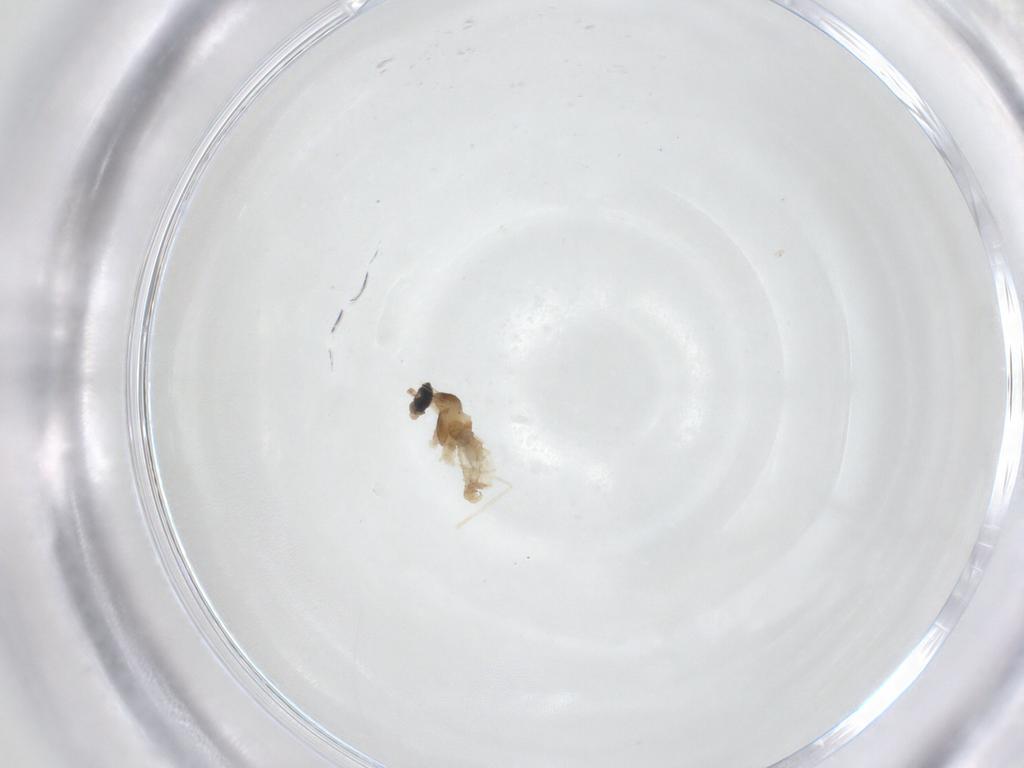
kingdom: Animalia
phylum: Arthropoda
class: Insecta
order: Diptera
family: Cecidomyiidae
